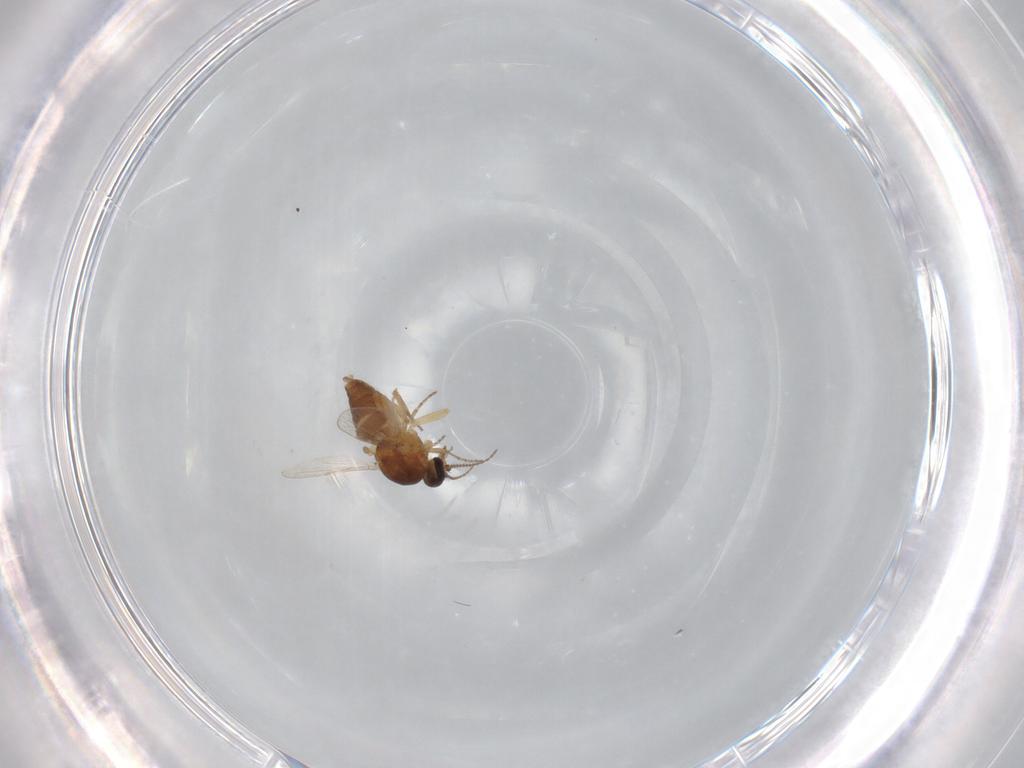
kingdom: Animalia
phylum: Arthropoda
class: Insecta
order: Diptera
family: Ceratopogonidae
